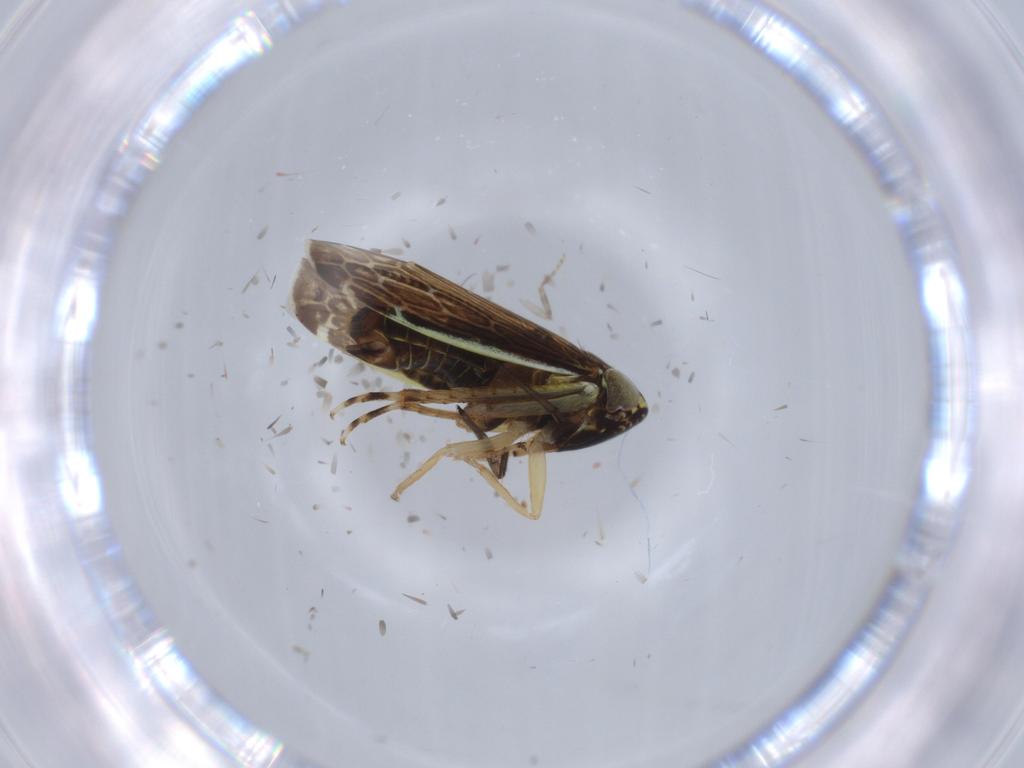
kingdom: Animalia
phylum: Arthropoda
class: Insecta
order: Hemiptera
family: Cicadellidae
